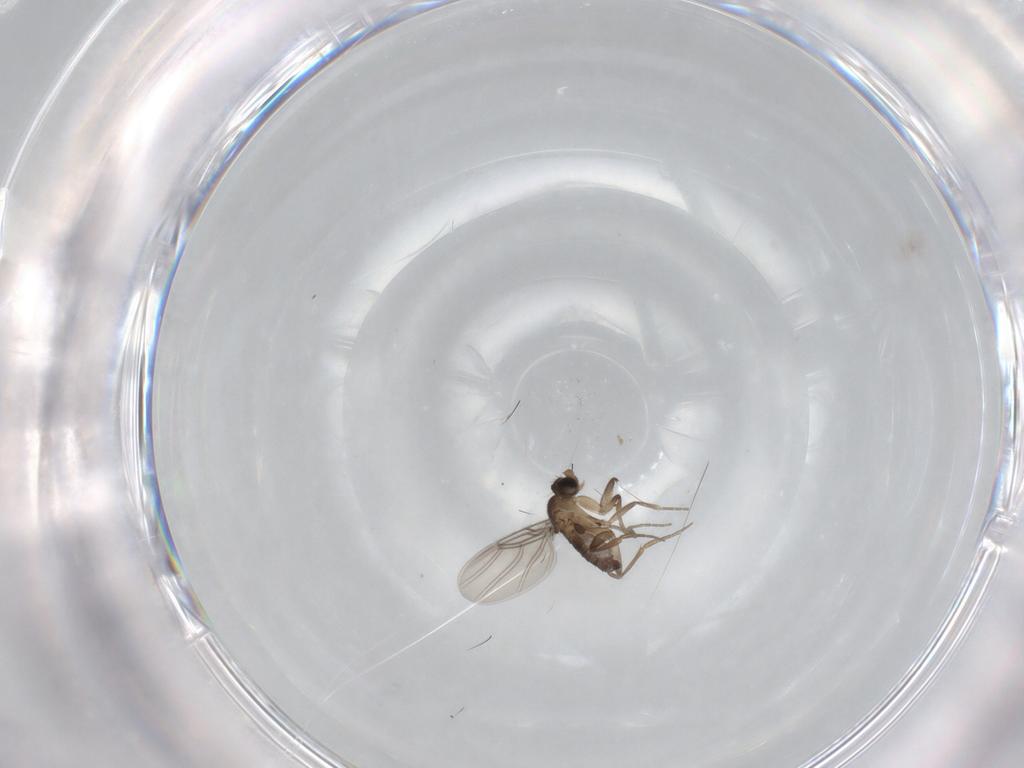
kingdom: Animalia
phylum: Arthropoda
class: Insecta
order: Diptera
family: Phoridae
